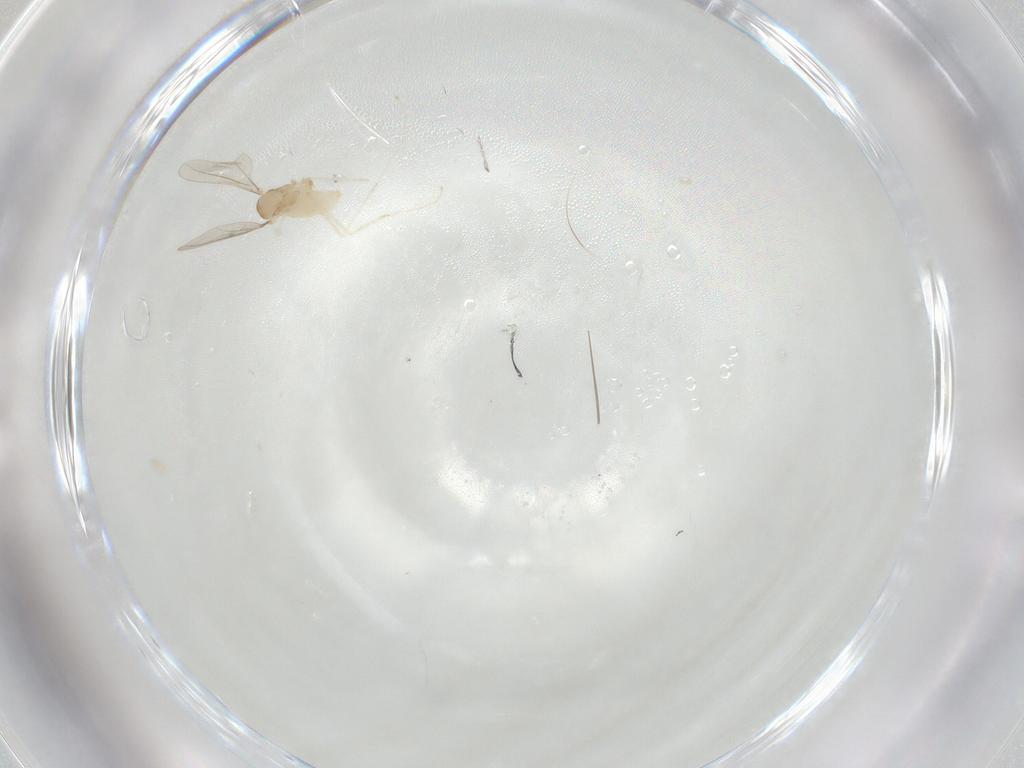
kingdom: Animalia
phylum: Arthropoda
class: Insecta
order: Diptera
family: Cecidomyiidae
